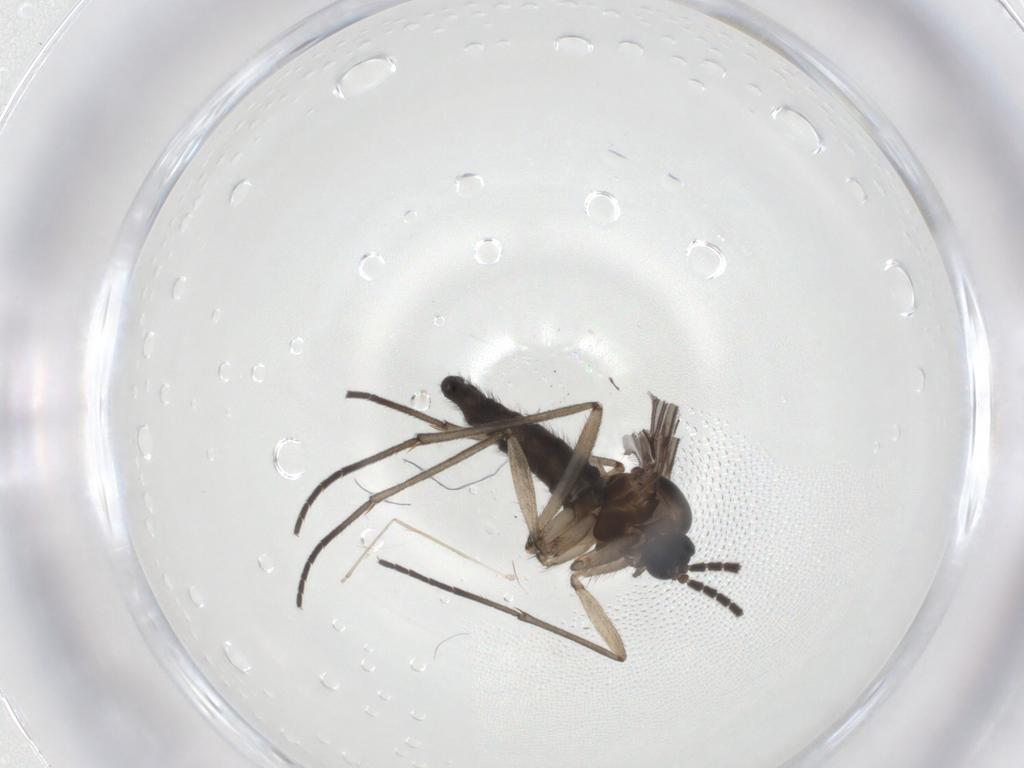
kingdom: Animalia
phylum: Arthropoda
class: Insecta
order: Diptera
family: Sciaridae
